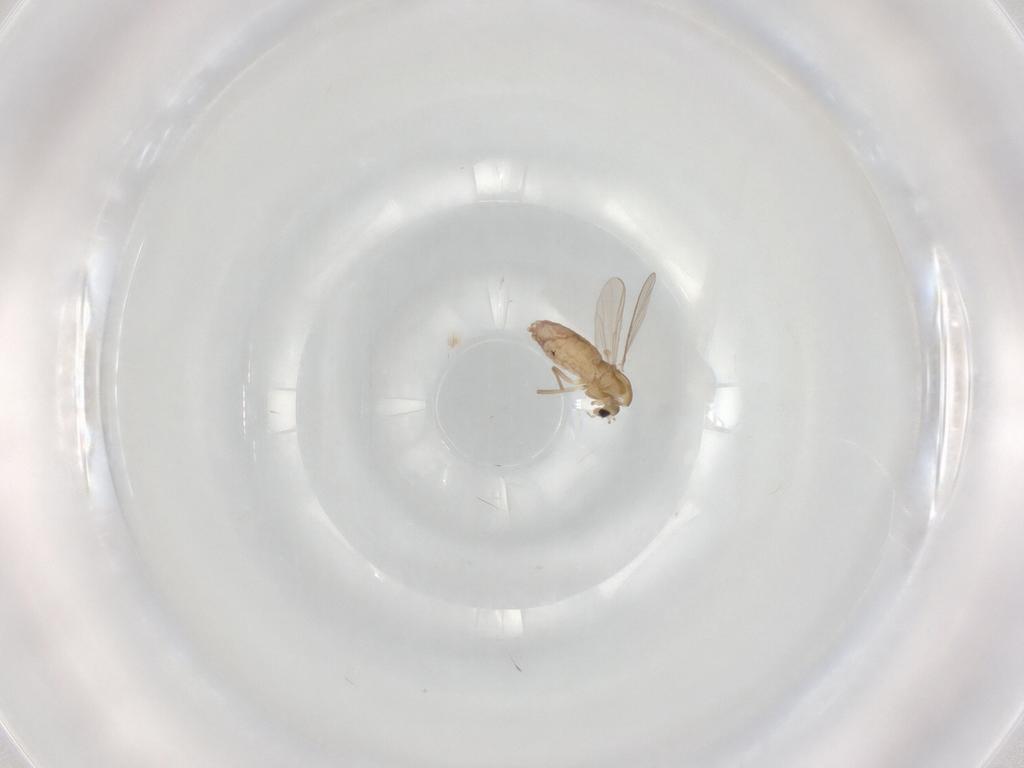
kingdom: Animalia
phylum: Arthropoda
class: Insecta
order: Diptera
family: Chironomidae
